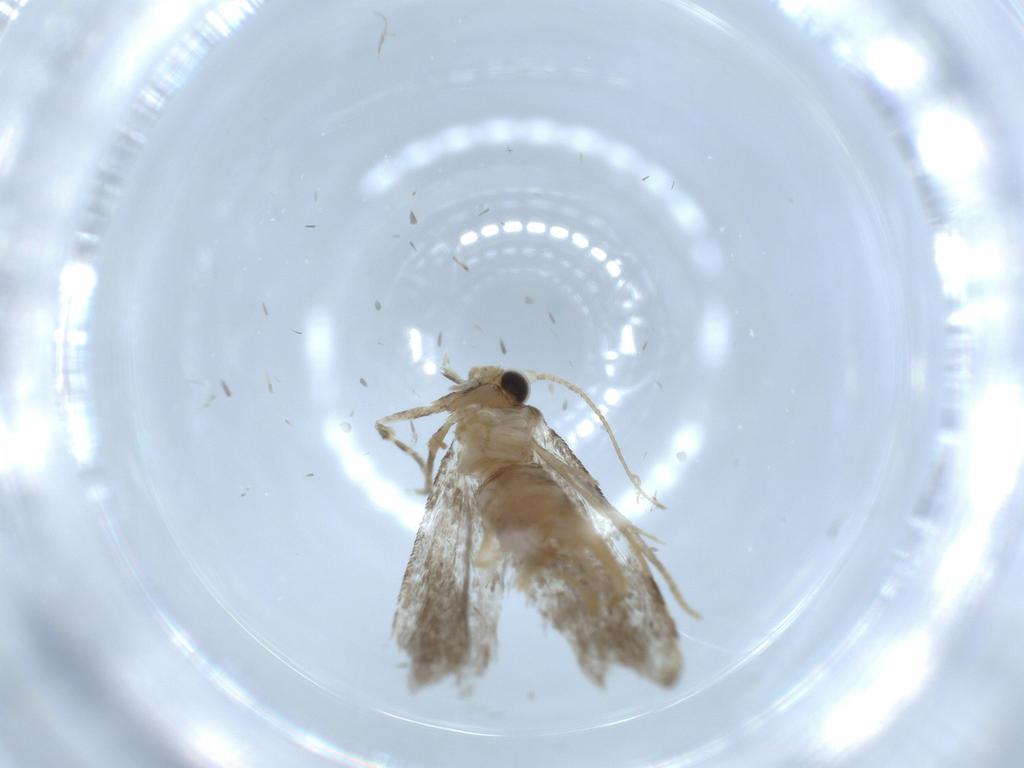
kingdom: Animalia
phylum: Arthropoda
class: Insecta
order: Lepidoptera
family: Tineidae
